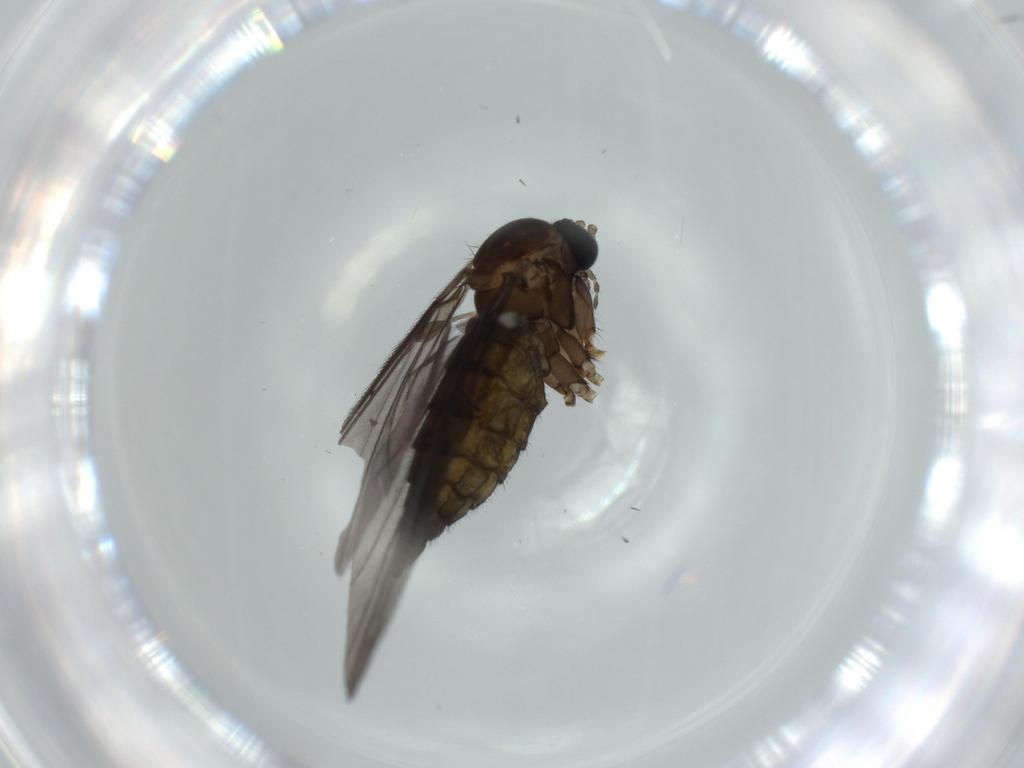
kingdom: Animalia
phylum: Arthropoda
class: Insecta
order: Diptera
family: Sciaridae
